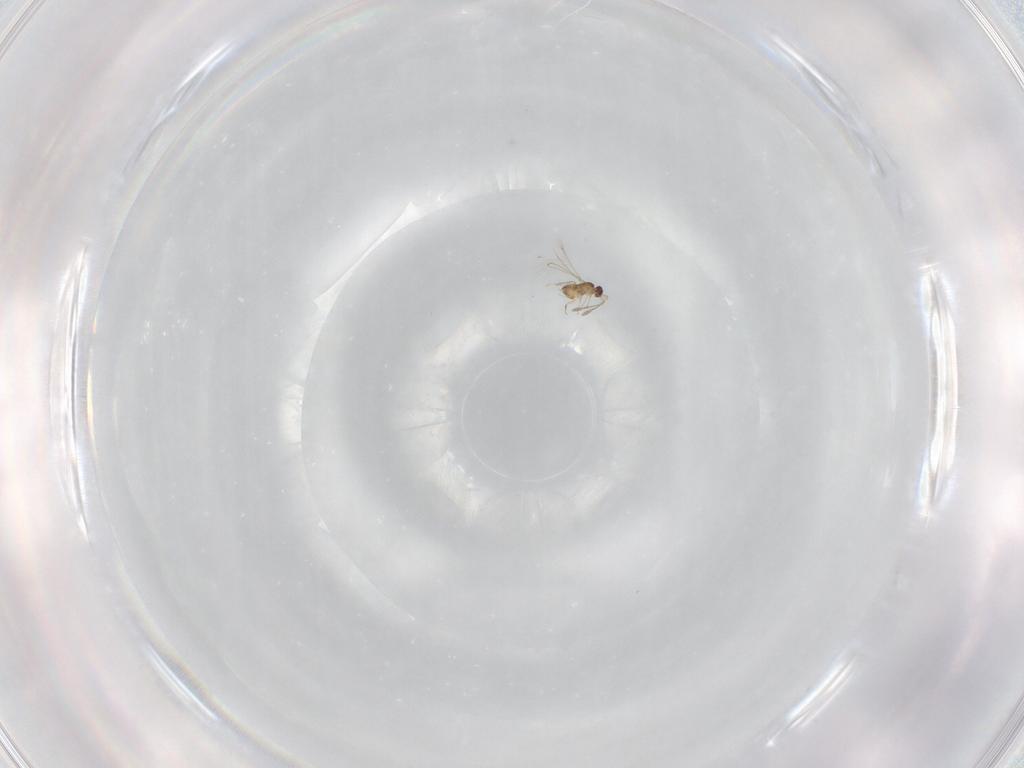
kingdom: Animalia
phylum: Arthropoda
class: Insecta
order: Hymenoptera
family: Mymaridae
